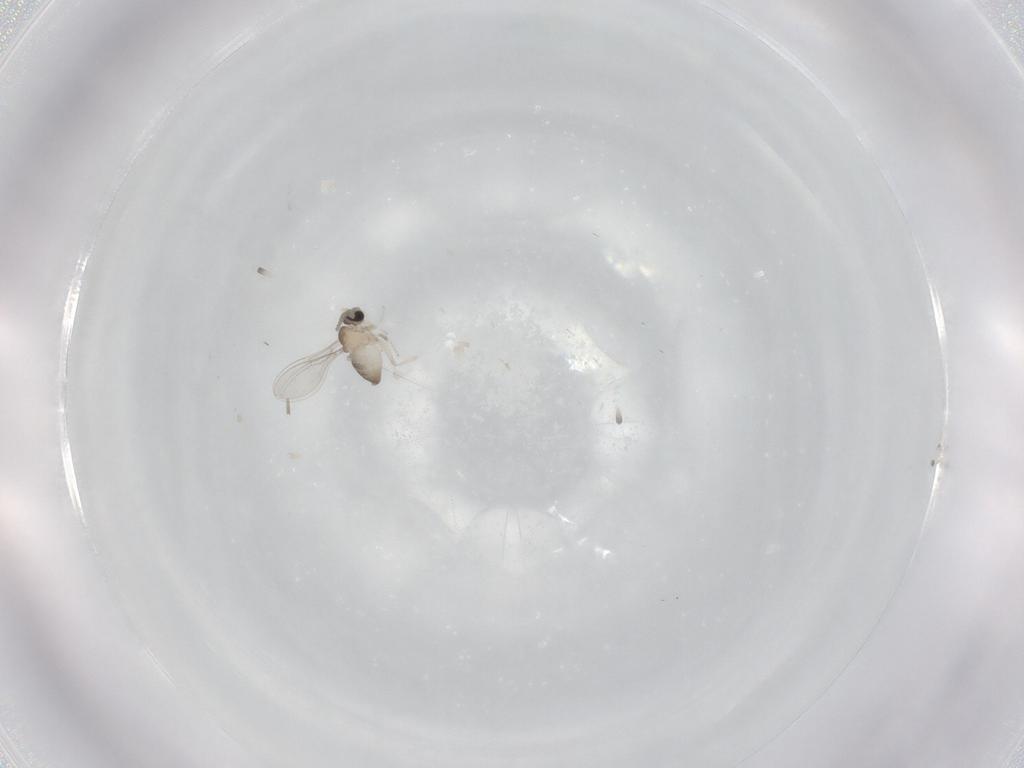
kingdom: Animalia
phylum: Arthropoda
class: Insecta
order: Diptera
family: Cecidomyiidae
